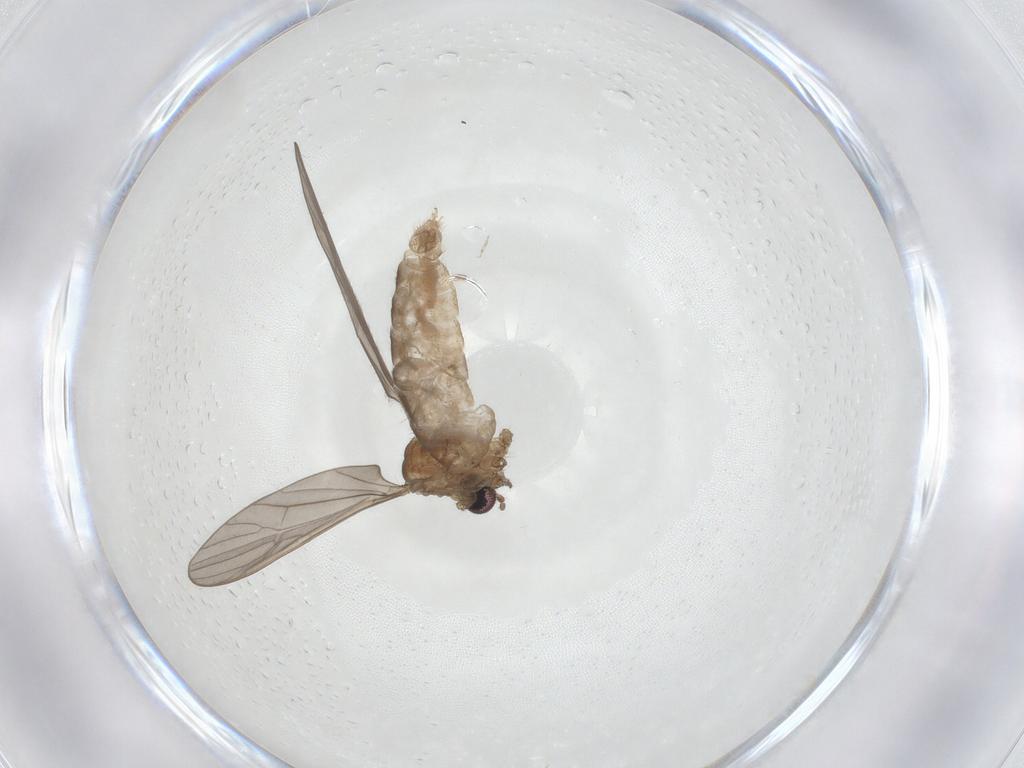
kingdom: Animalia
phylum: Arthropoda
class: Insecta
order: Diptera
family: Limoniidae
